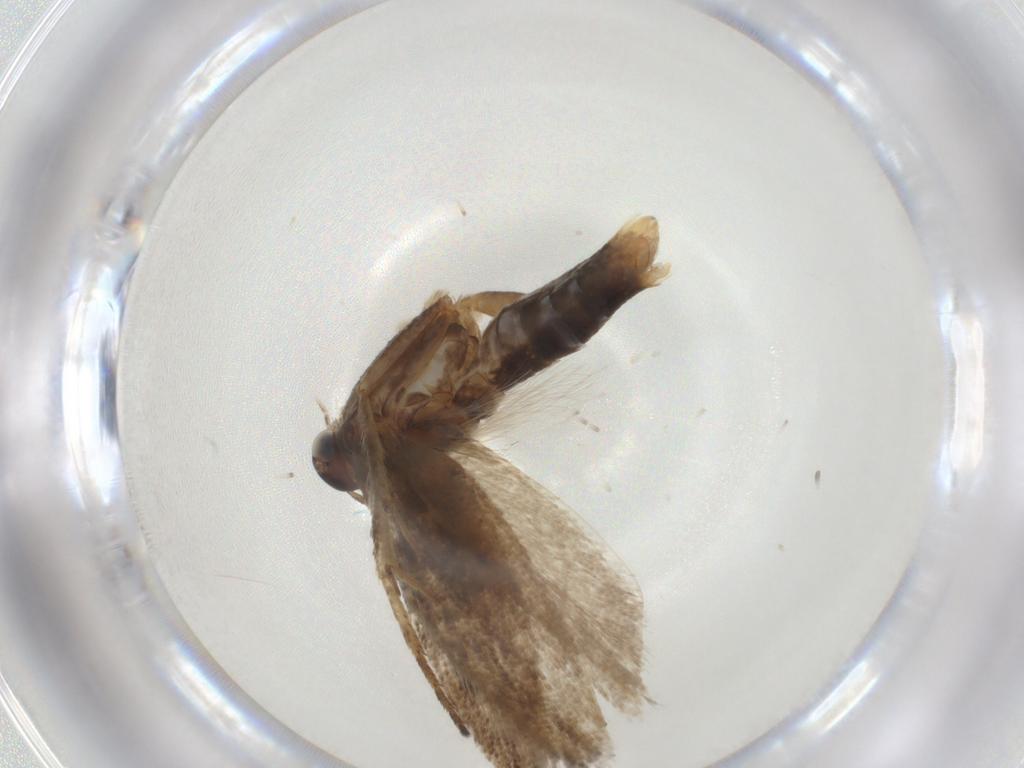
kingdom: Animalia
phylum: Arthropoda
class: Insecta
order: Lepidoptera
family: Gelechiidae
